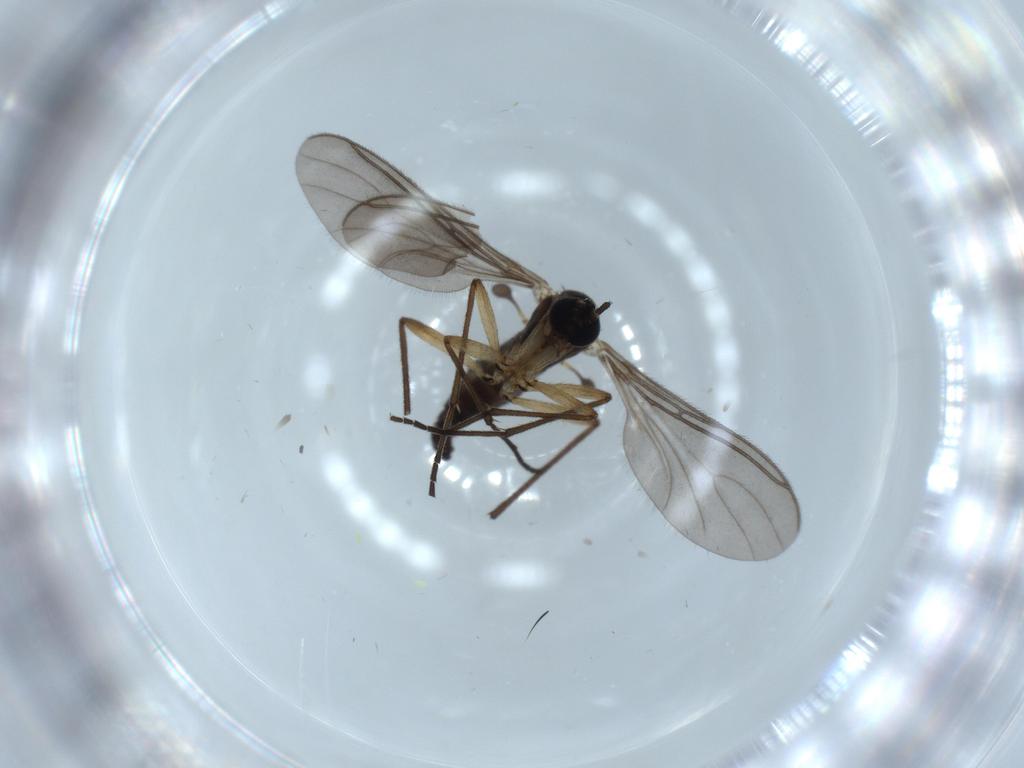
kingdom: Animalia
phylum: Arthropoda
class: Insecta
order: Diptera
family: Sciaridae
